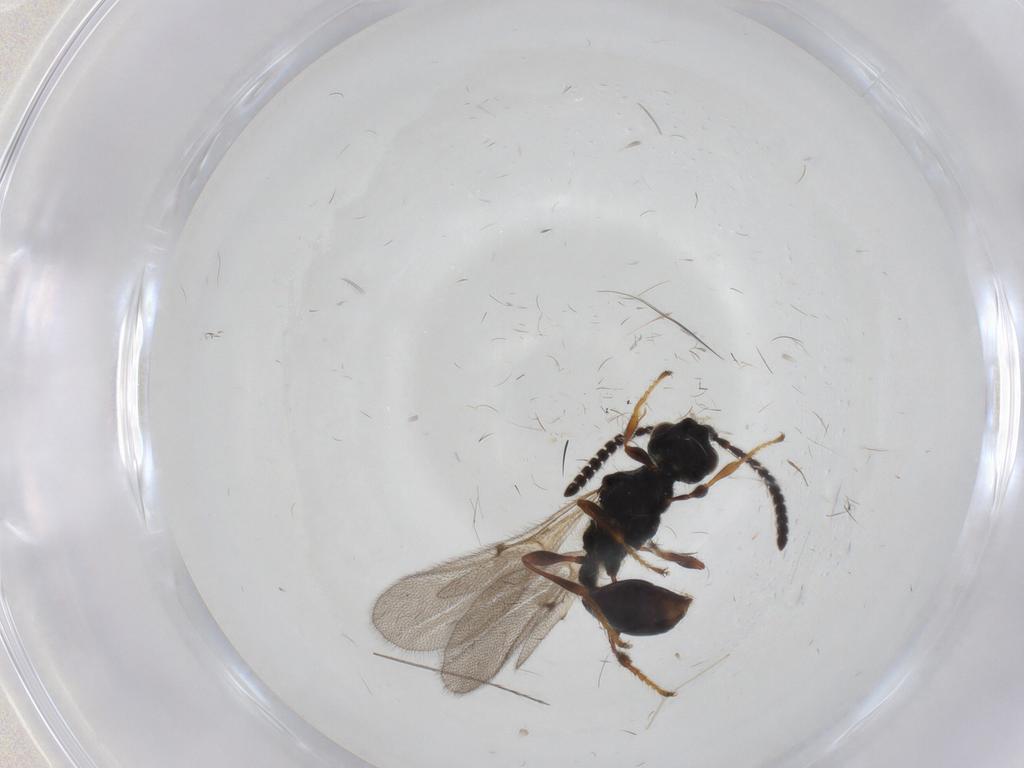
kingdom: Animalia
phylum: Arthropoda
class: Insecta
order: Hymenoptera
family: Diapriidae
